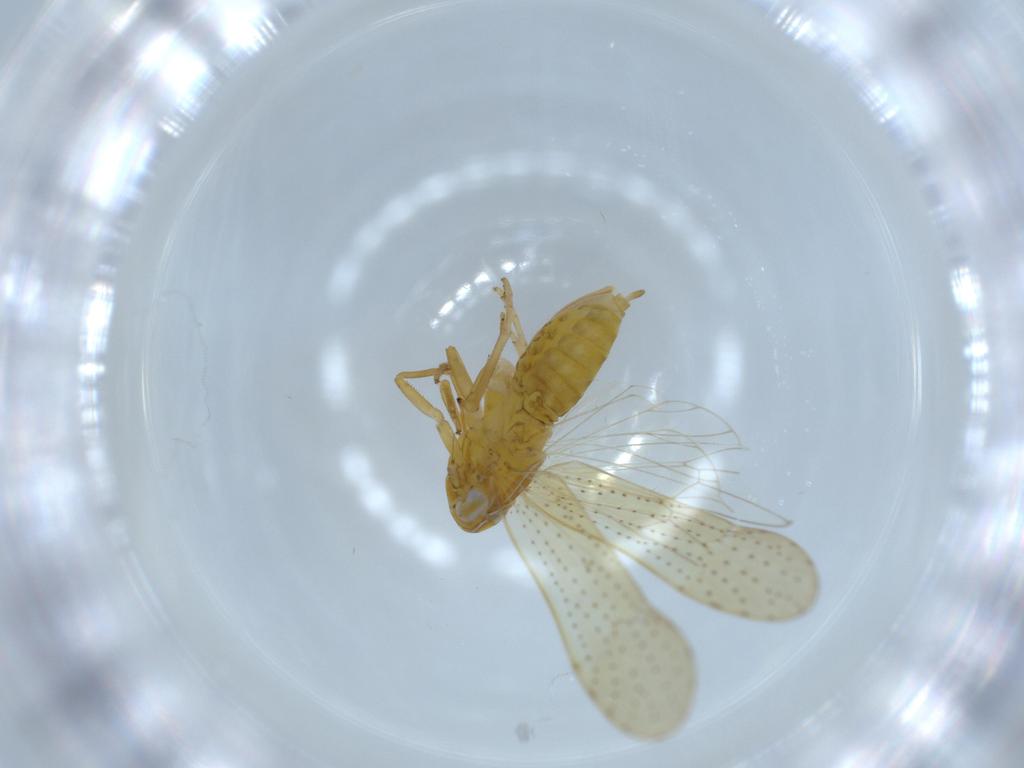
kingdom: Animalia
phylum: Arthropoda
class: Insecta
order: Hemiptera
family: Delphacidae
